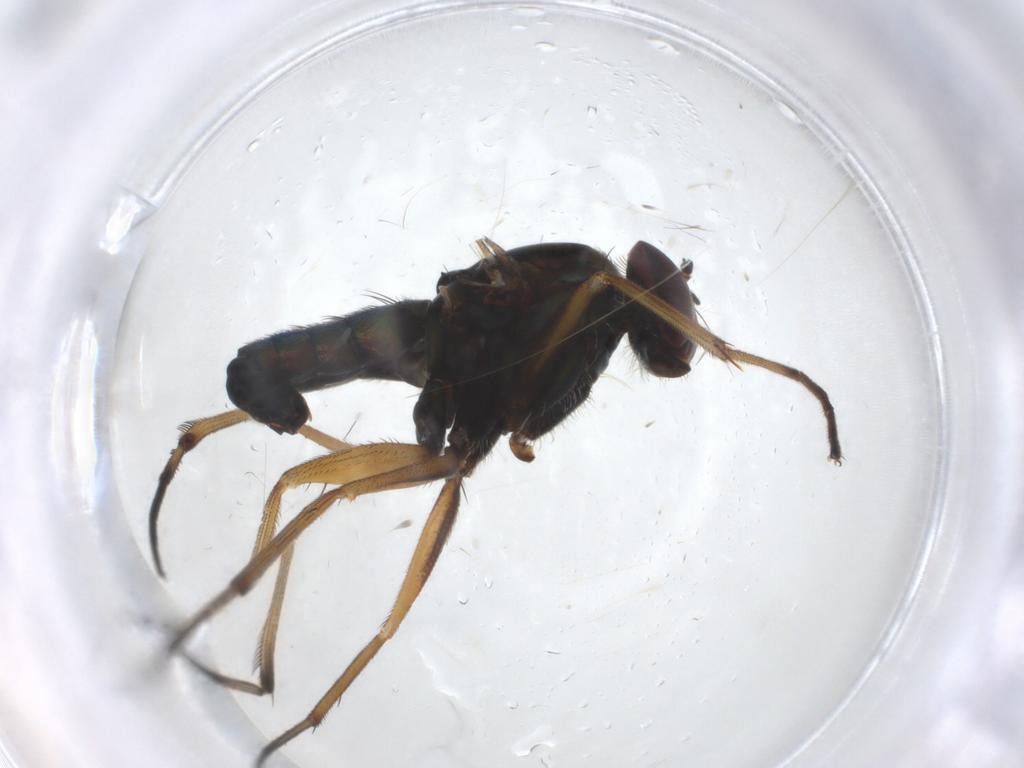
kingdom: Animalia
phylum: Arthropoda
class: Insecta
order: Diptera
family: Dolichopodidae
